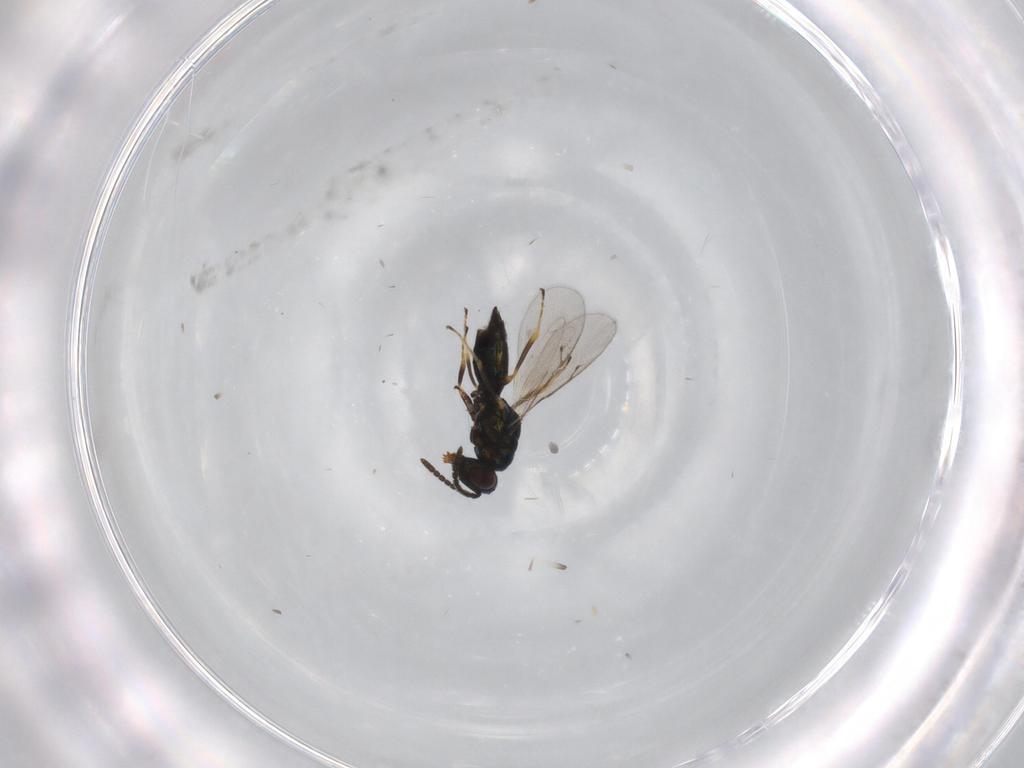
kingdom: Animalia
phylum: Arthropoda
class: Insecta
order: Hymenoptera
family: Pteromalidae
